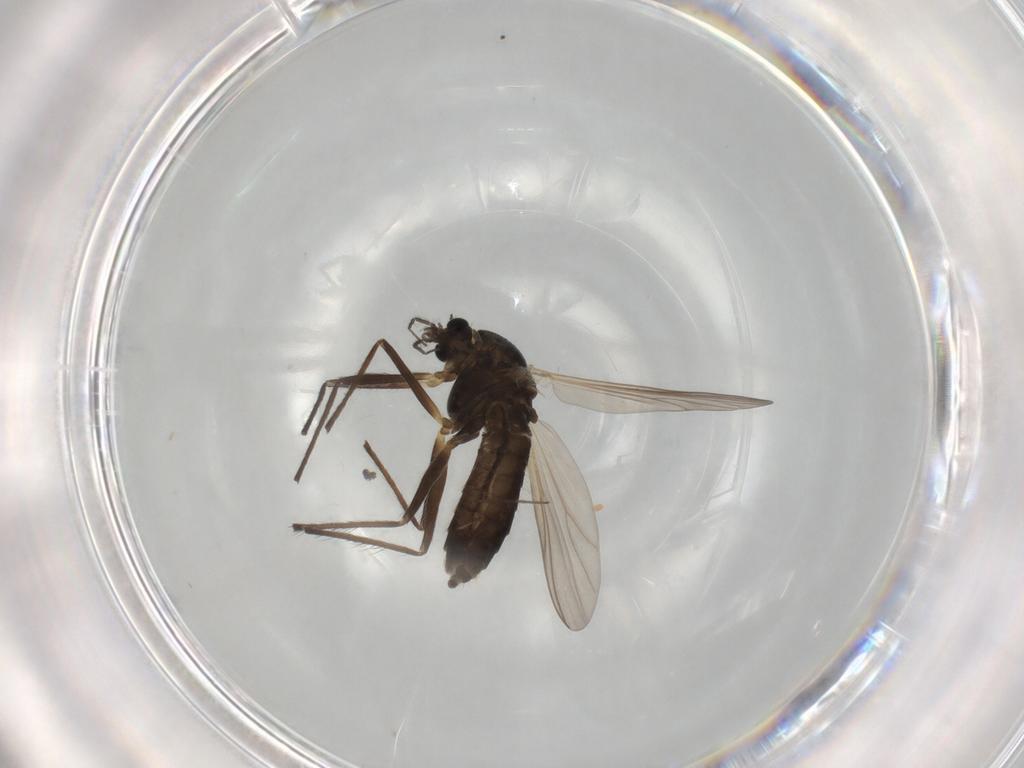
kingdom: Animalia
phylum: Arthropoda
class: Insecta
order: Diptera
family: Chironomidae
